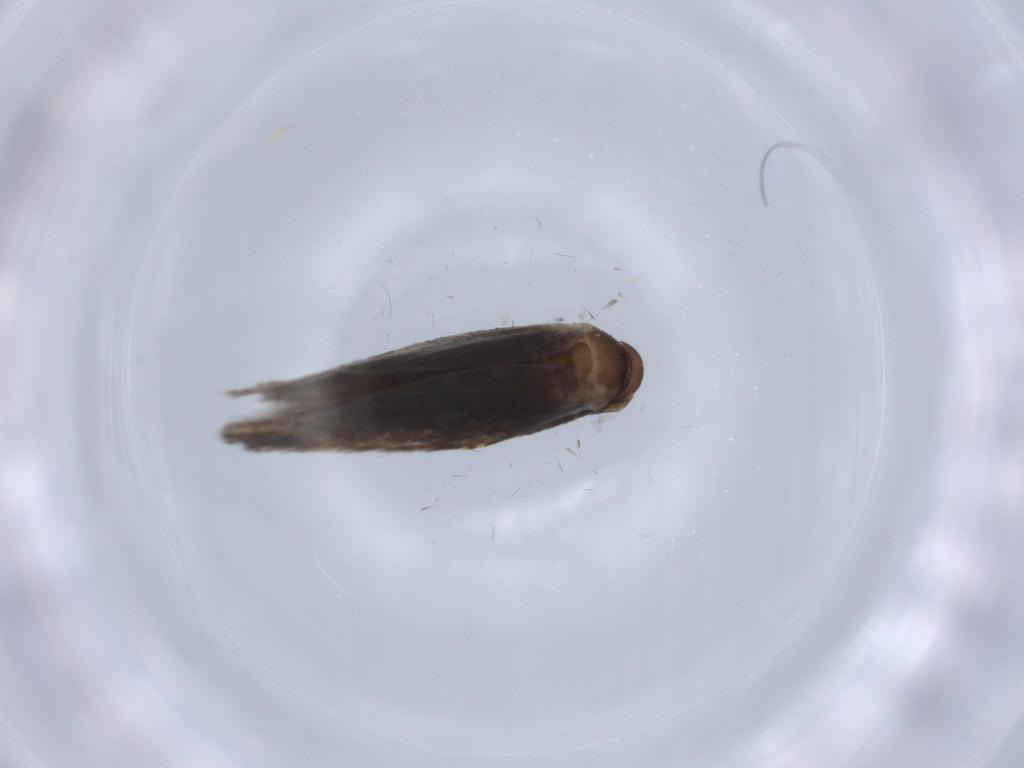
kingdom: Animalia
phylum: Arthropoda
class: Insecta
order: Lepidoptera
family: Elachistidae
